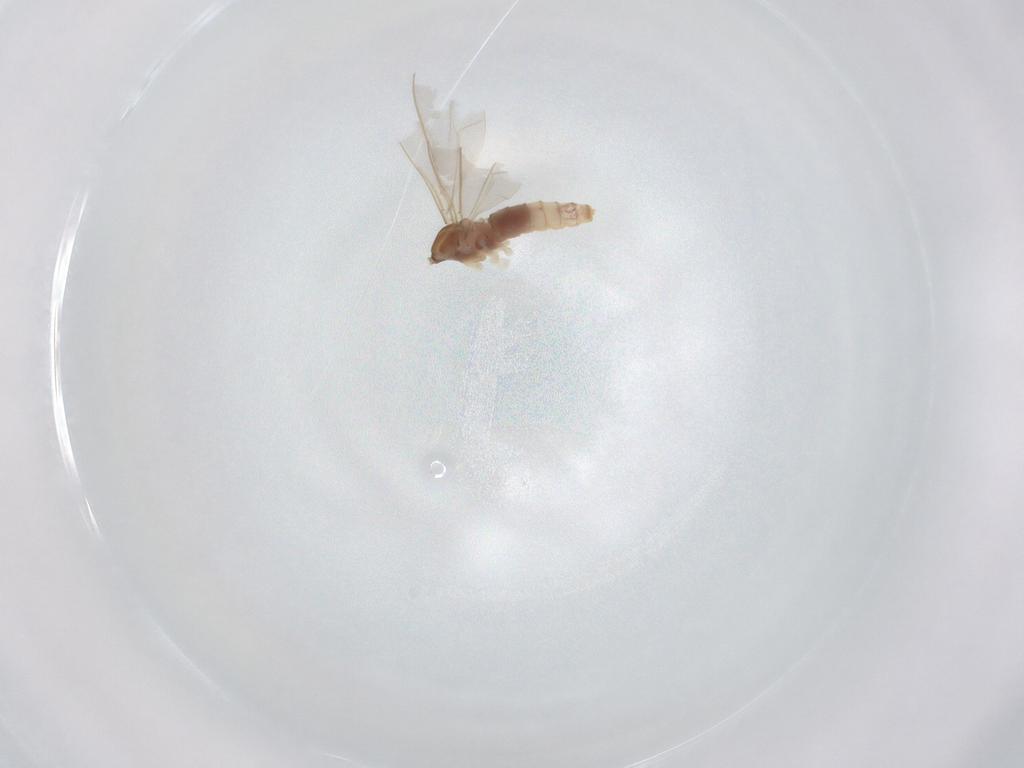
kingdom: Animalia
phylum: Arthropoda
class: Insecta
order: Diptera
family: Cecidomyiidae
